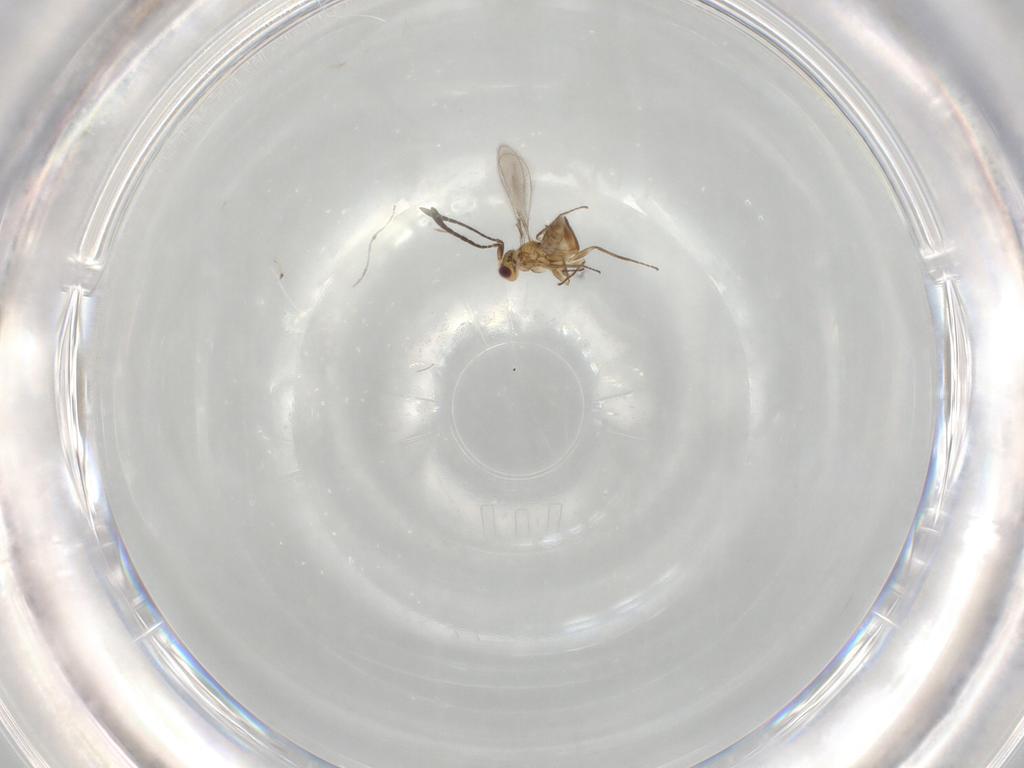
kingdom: Animalia
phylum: Arthropoda
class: Insecta
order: Hymenoptera
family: Mymaridae
